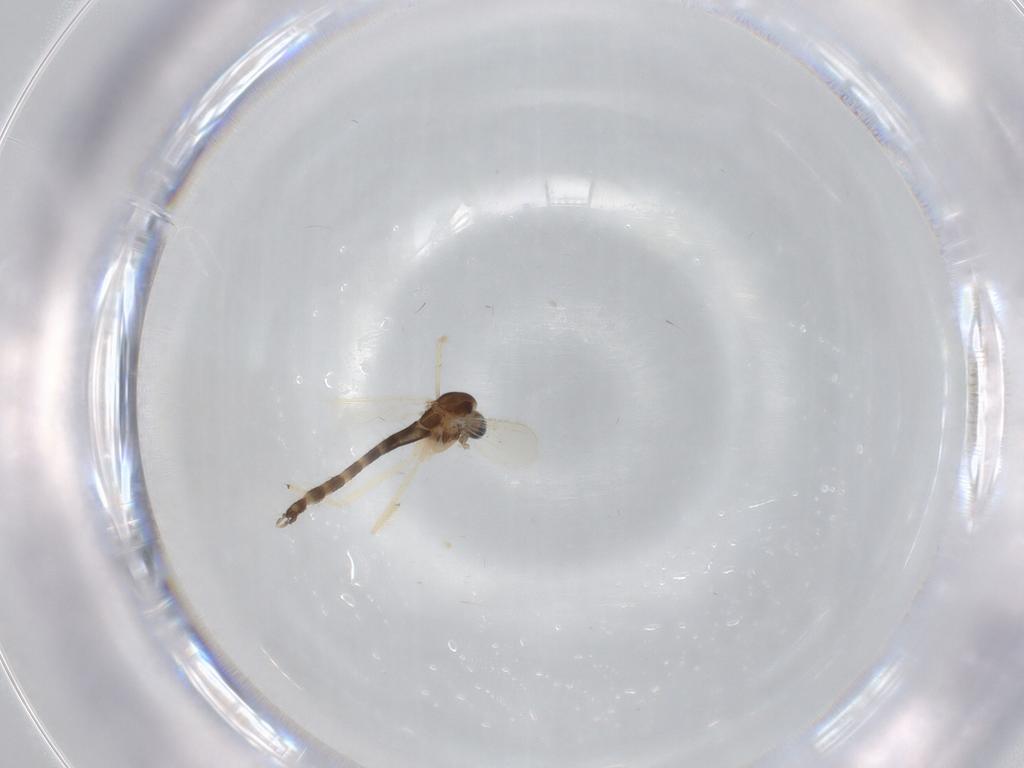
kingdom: Animalia
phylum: Arthropoda
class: Insecta
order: Diptera
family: Chironomidae
